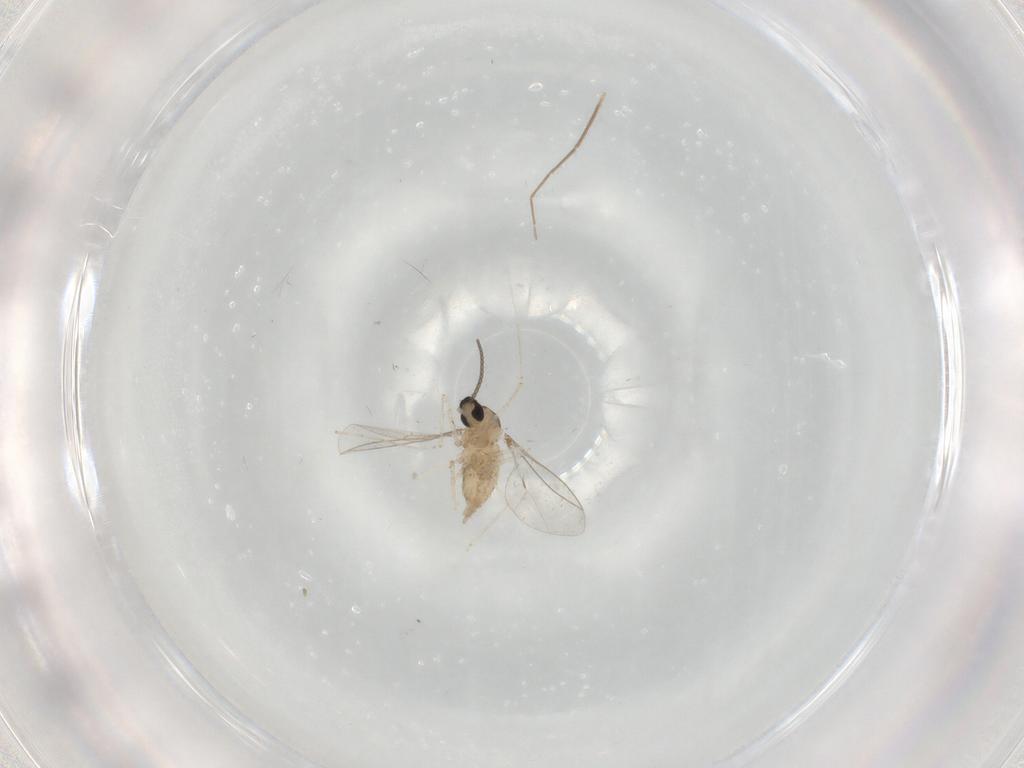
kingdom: Animalia
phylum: Arthropoda
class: Insecta
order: Diptera
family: Cecidomyiidae
